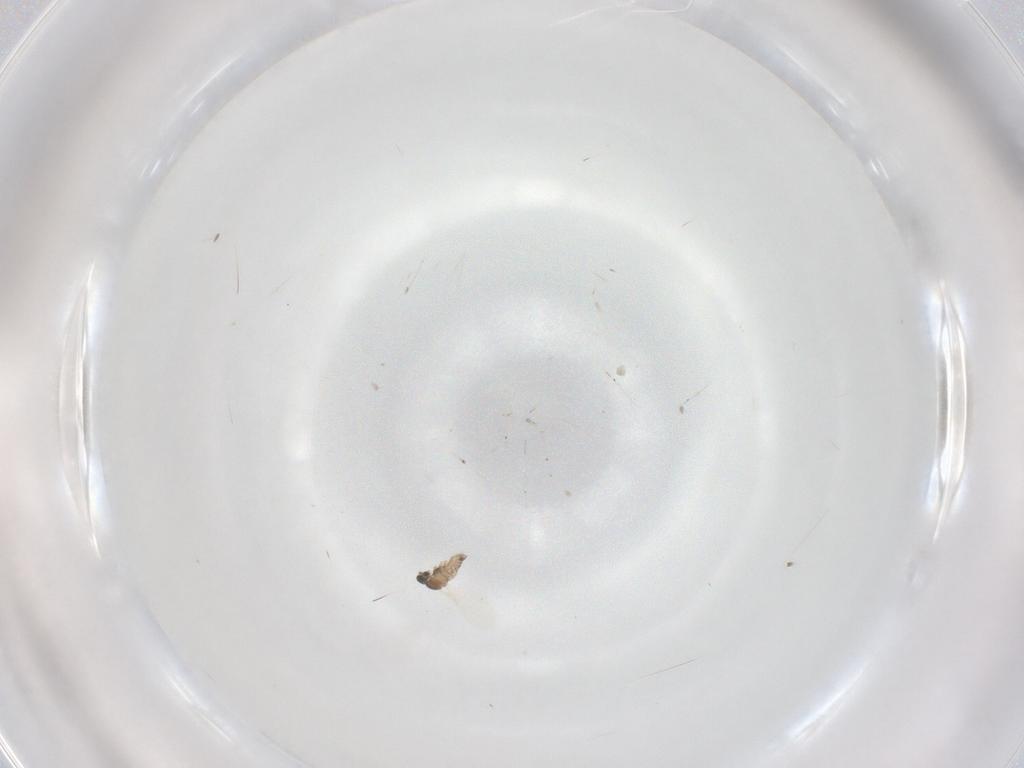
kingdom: Animalia
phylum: Arthropoda
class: Insecta
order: Diptera
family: Cecidomyiidae
